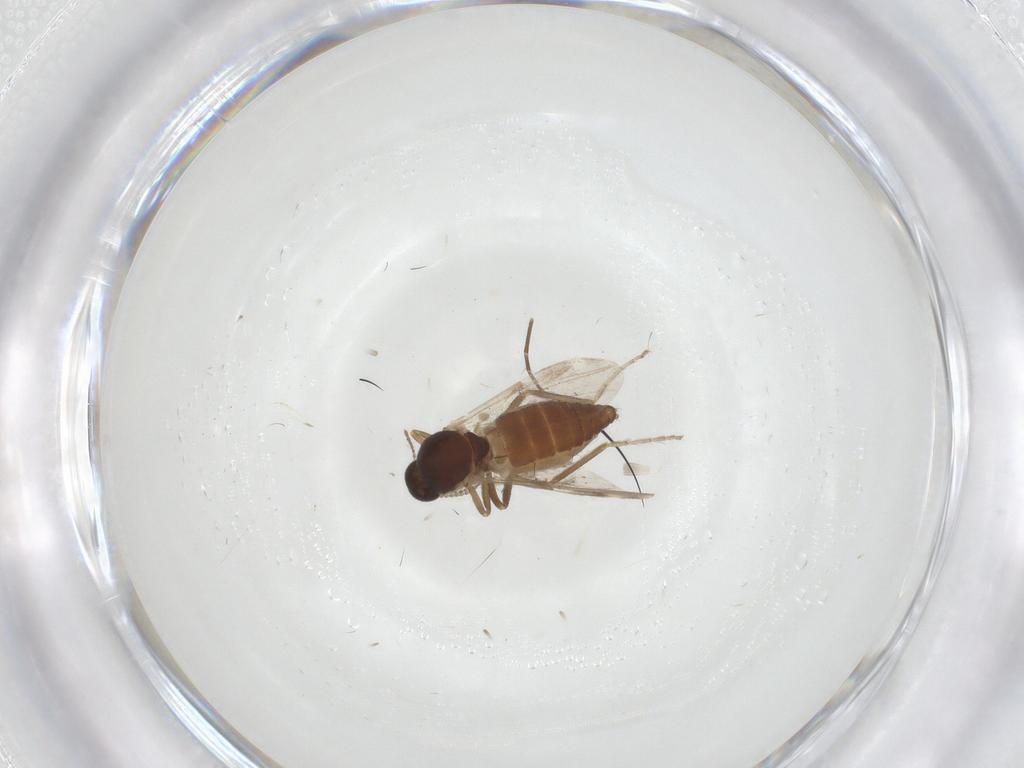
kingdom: Animalia
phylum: Arthropoda
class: Insecta
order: Diptera
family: Ceratopogonidae
